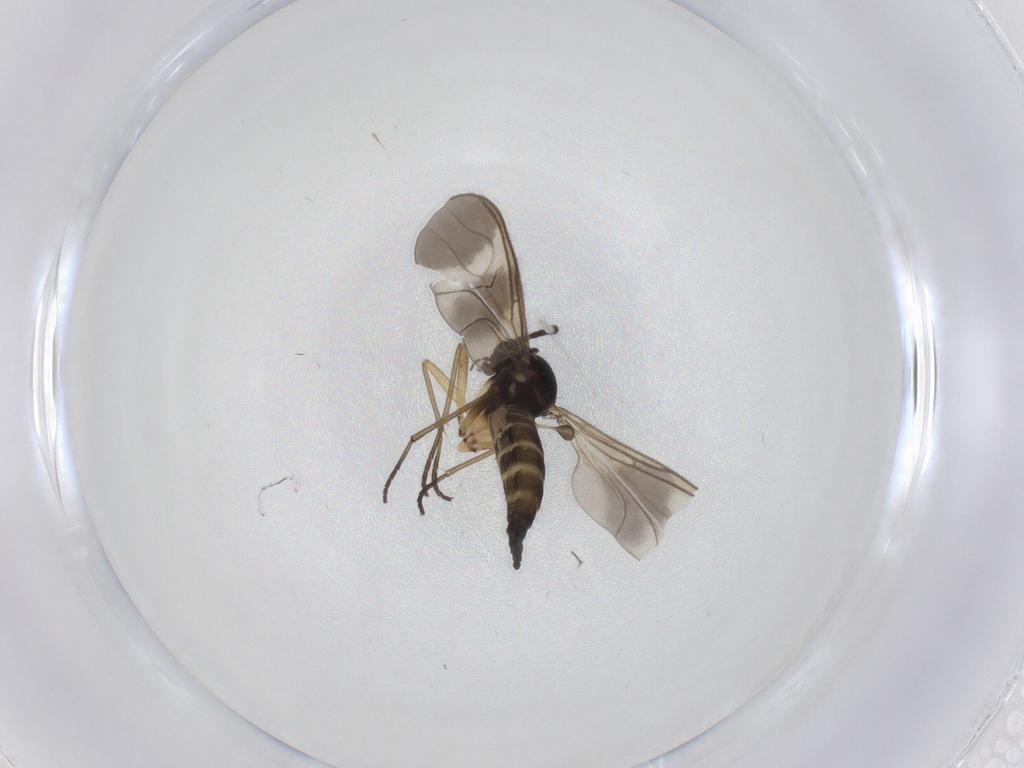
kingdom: Animalia
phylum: Arthropoda
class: Insecta
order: Diptera
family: Sciaridae
